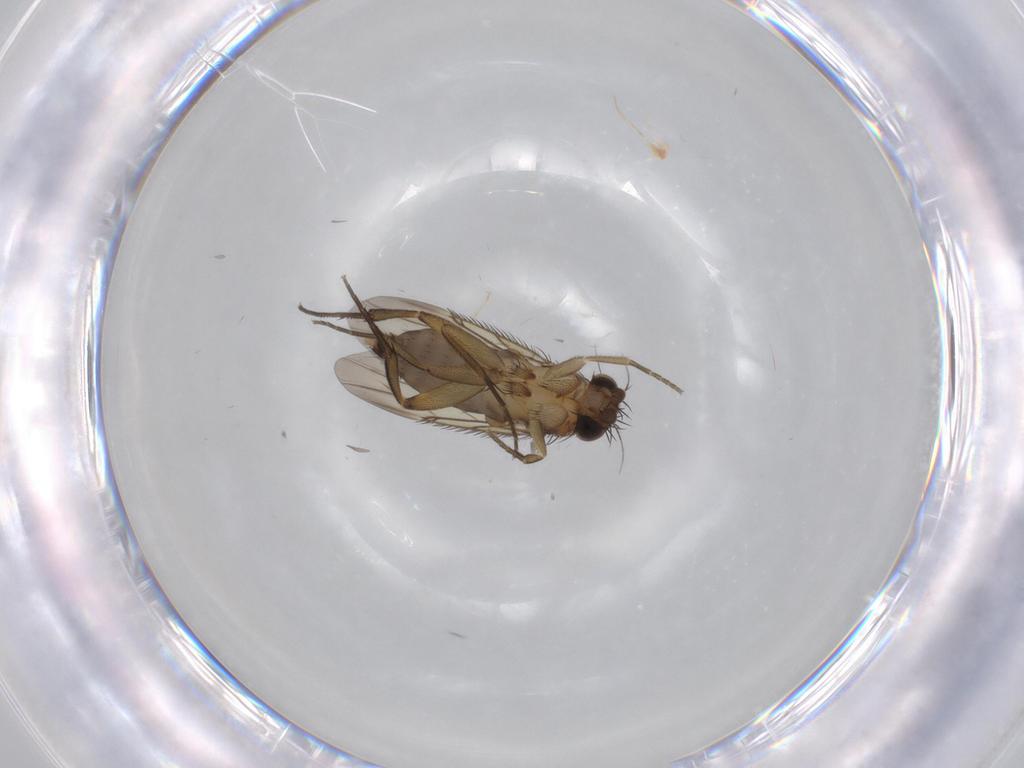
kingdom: Animalia
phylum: Arthropoda
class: Insecta
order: Diptera
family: Phoridae
